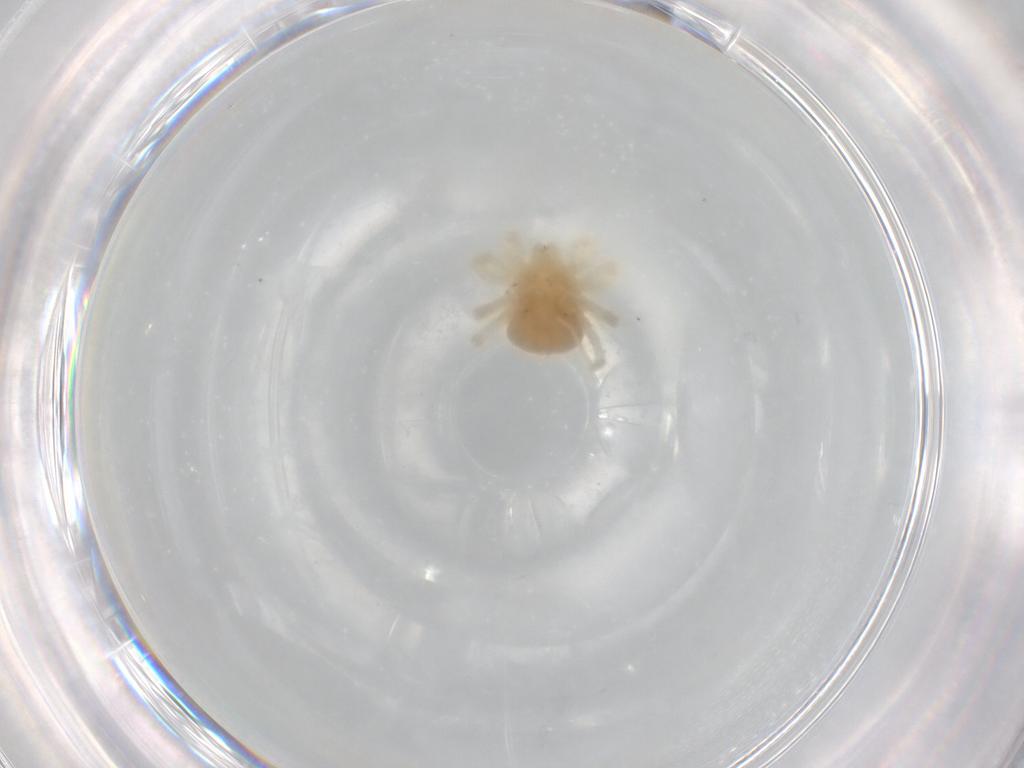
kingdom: Animalia
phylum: Arthropoda
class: Arachnida
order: Trombidiformes
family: Anystidae
